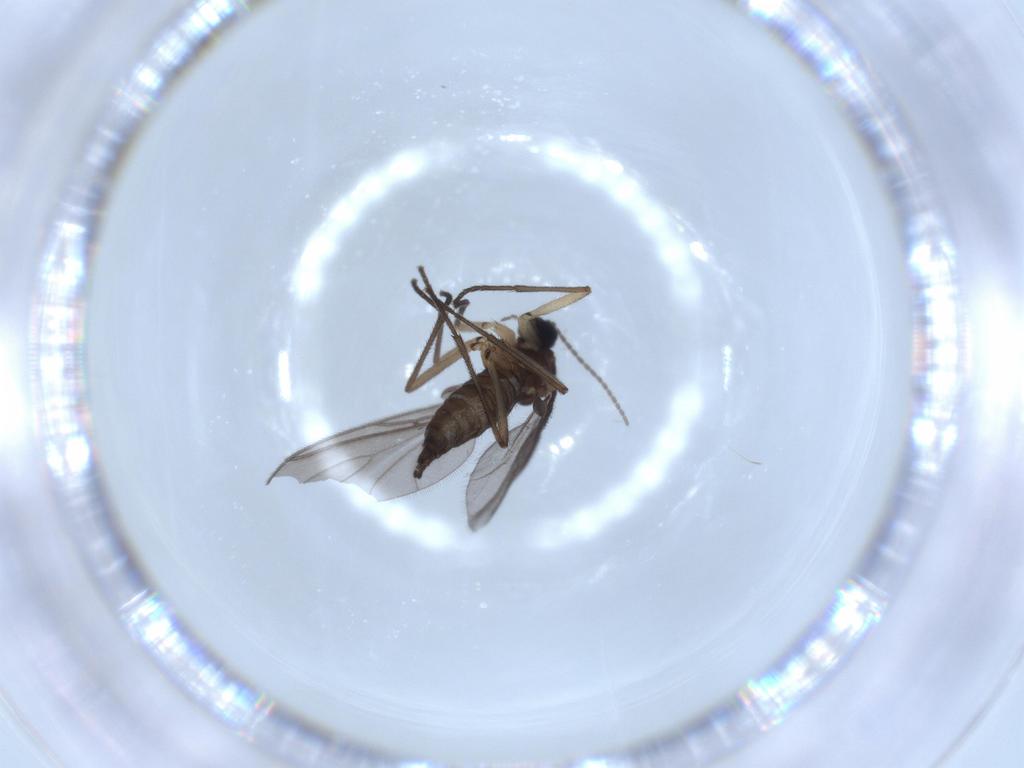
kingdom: Animalia
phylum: Arthropoda
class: Insecta
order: Diptera
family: Sciaridae
